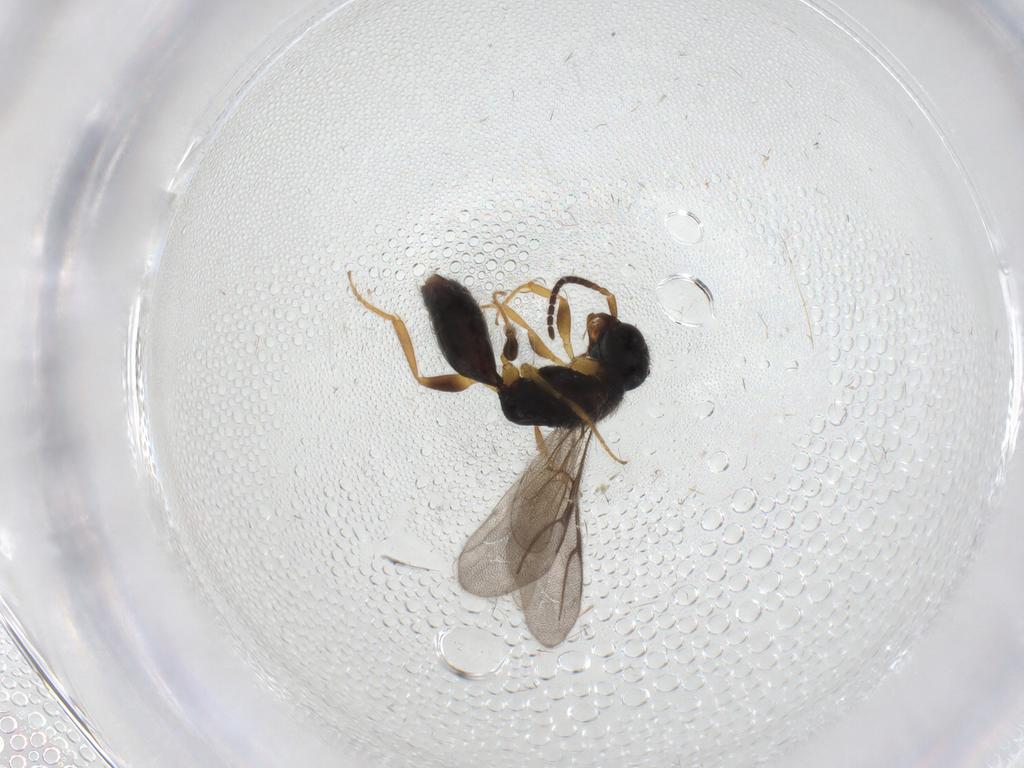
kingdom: Animalia
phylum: Arthropoda
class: Insecta
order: Hymenoptera
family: Bethylidae
